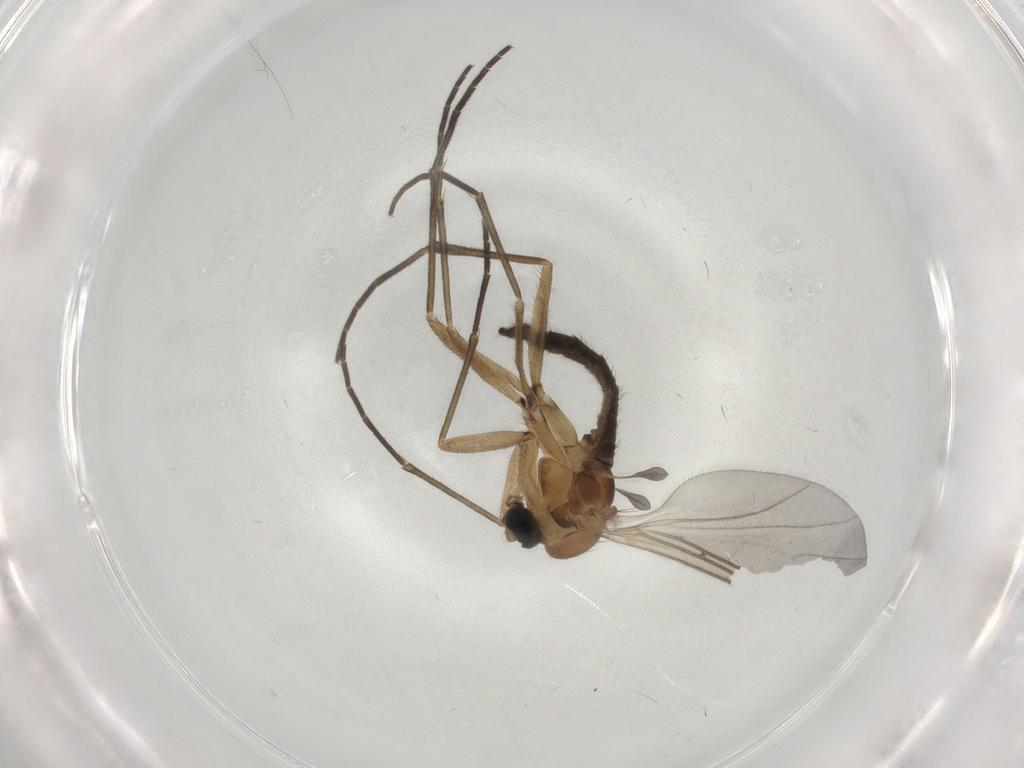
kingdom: Animalia
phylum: Arthropoda
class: Insecta
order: Diptera
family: Sciaridae
